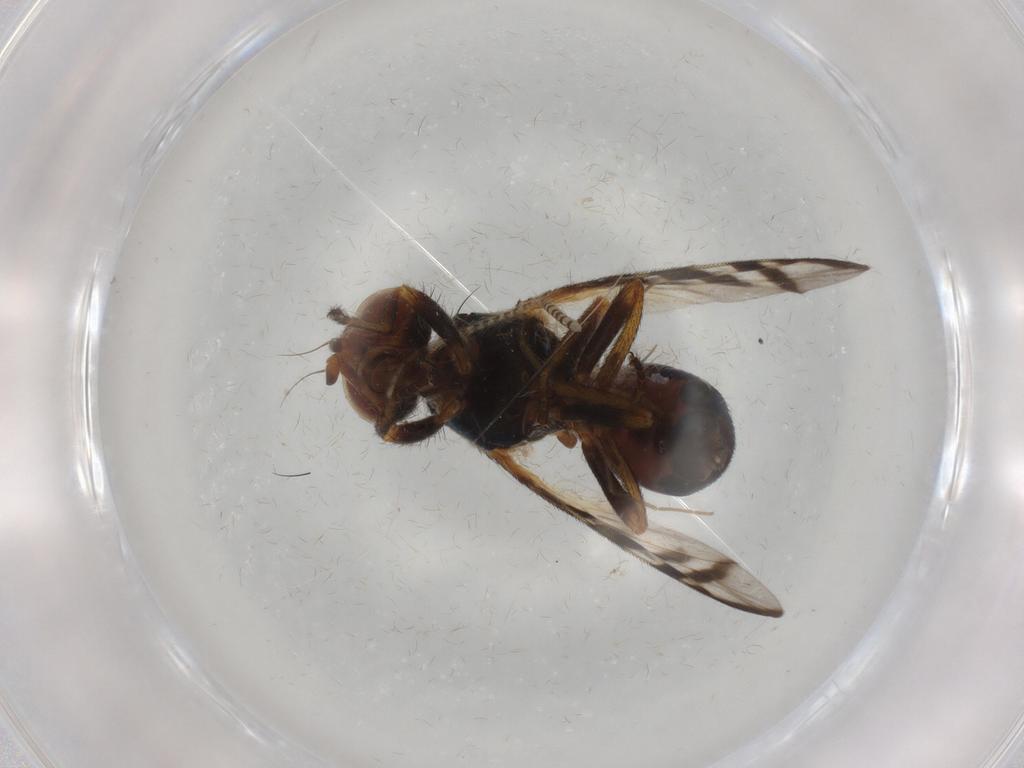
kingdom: Animalia
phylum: Arthropoda
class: Insecta
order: Diptera
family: Platystomatidae
